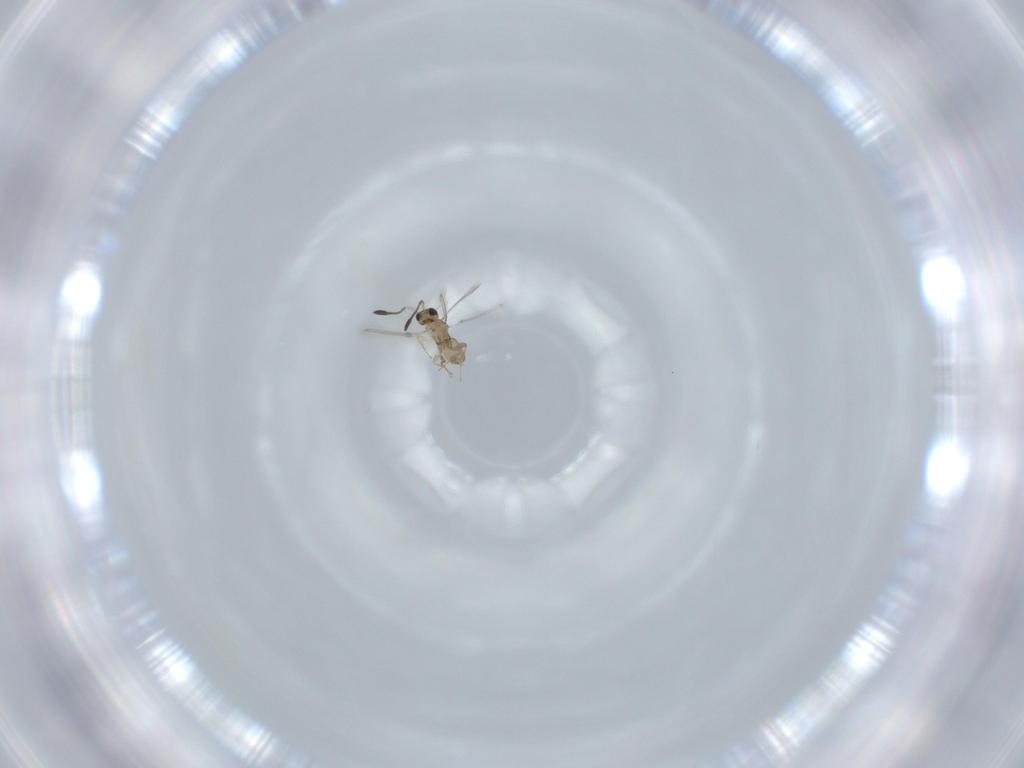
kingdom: Animalia
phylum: Arthropoda
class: Insecta
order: Hymenoptera
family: Mymaridae
